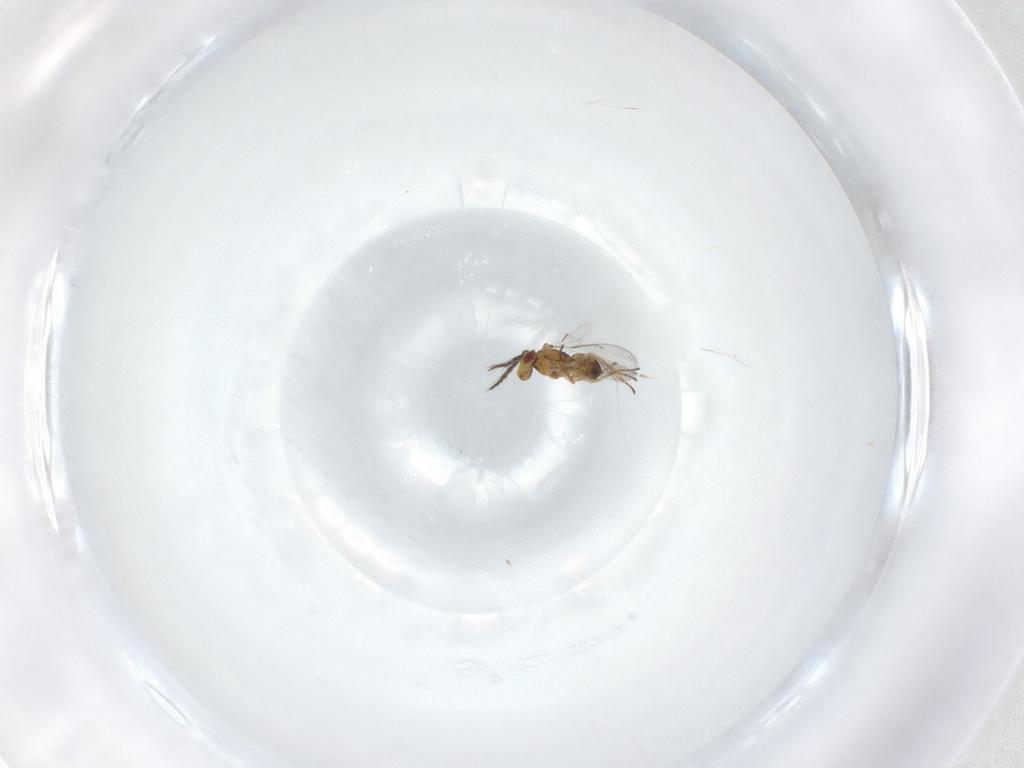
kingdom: Animalia
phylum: Arthropoda
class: Insecta
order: Hymenoptera
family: Eulophidae
